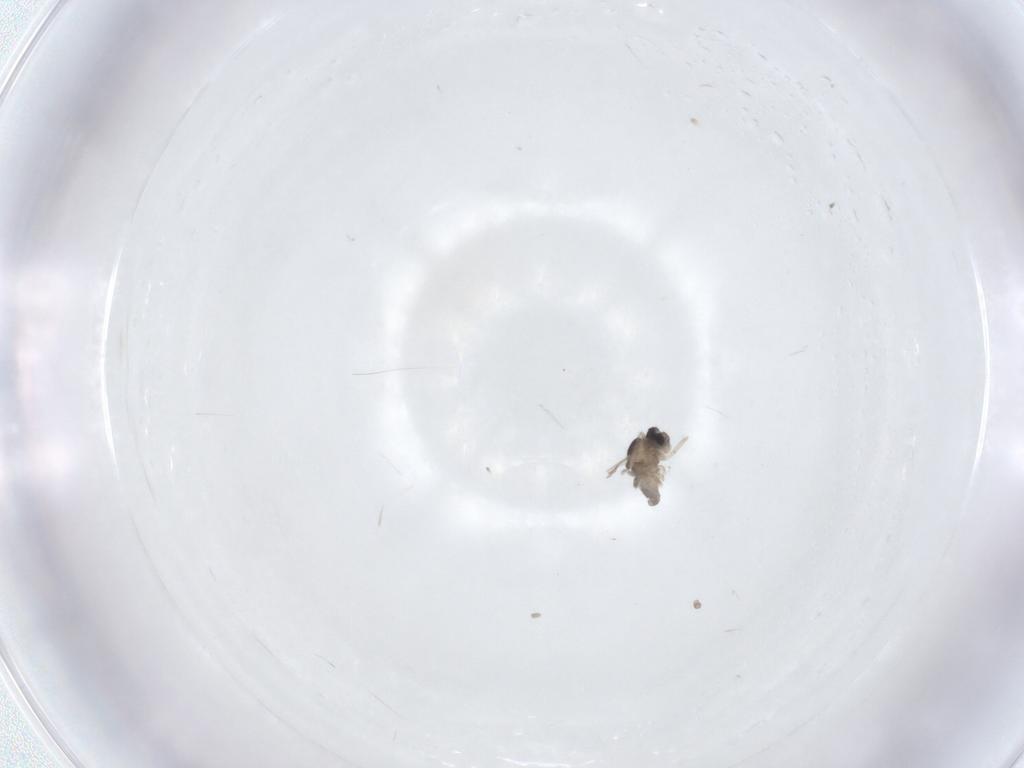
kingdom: Animalia
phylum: Arthropoda
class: Insecta
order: Diptera
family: Cecidomyiidae
